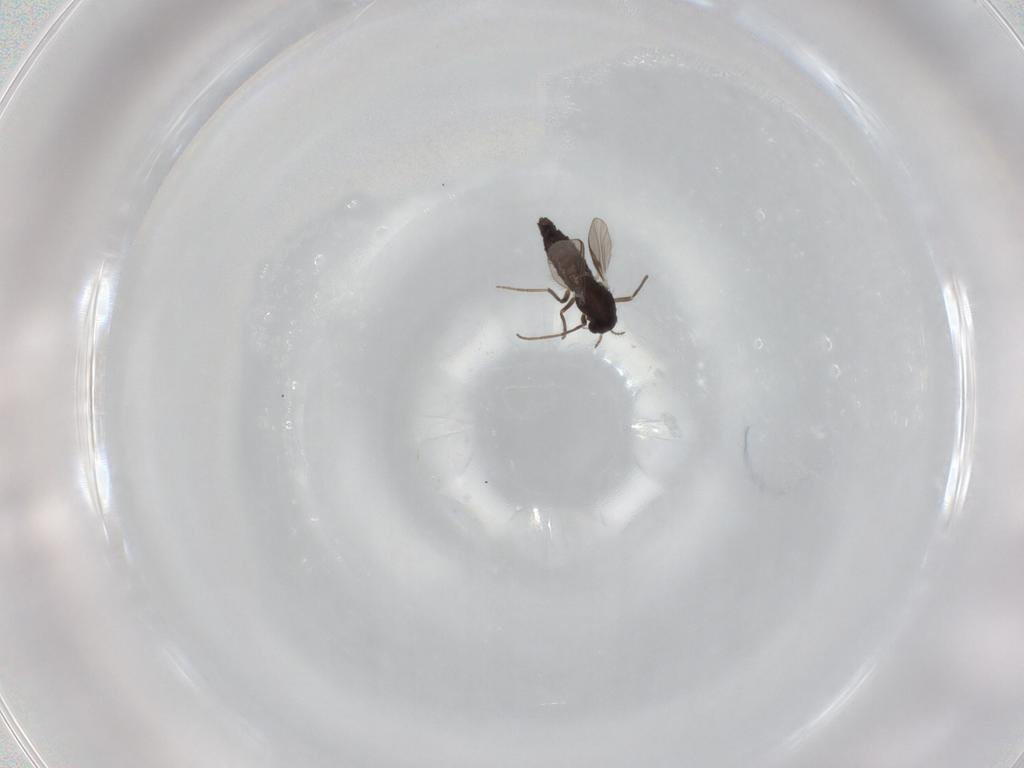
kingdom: Animalia
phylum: Arthropoda
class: Insecta
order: Diptera
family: Chironomidae
